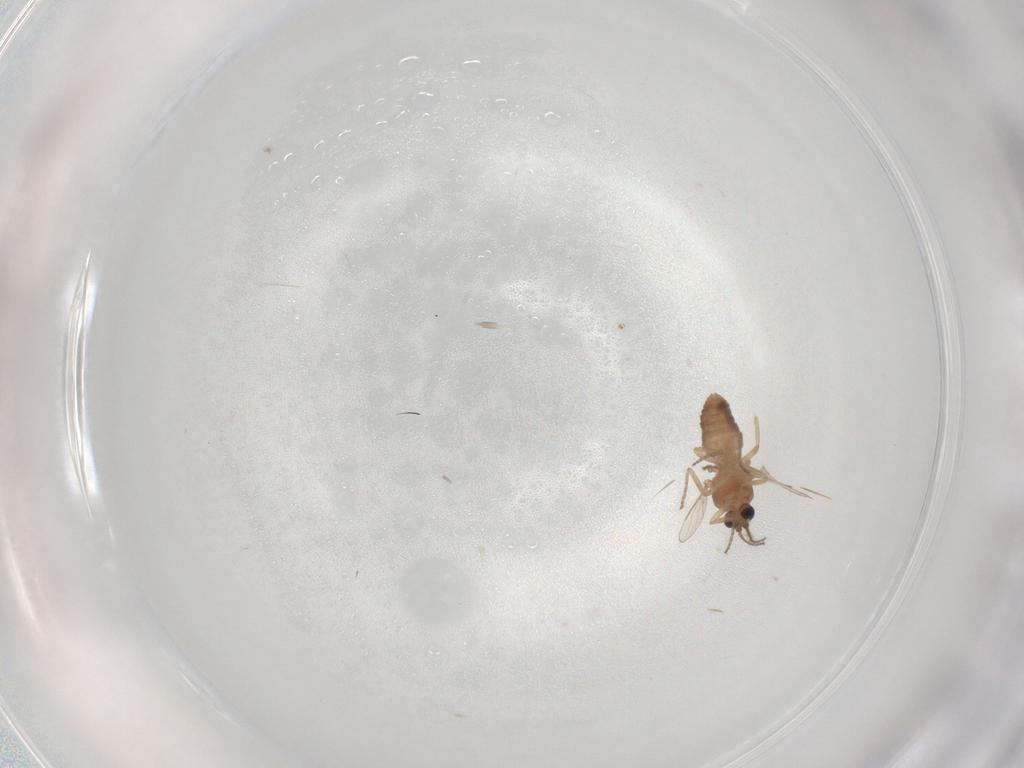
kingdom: Animalia
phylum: Arthropoda
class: Insecta
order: Diptera
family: Ceratopogonidae
